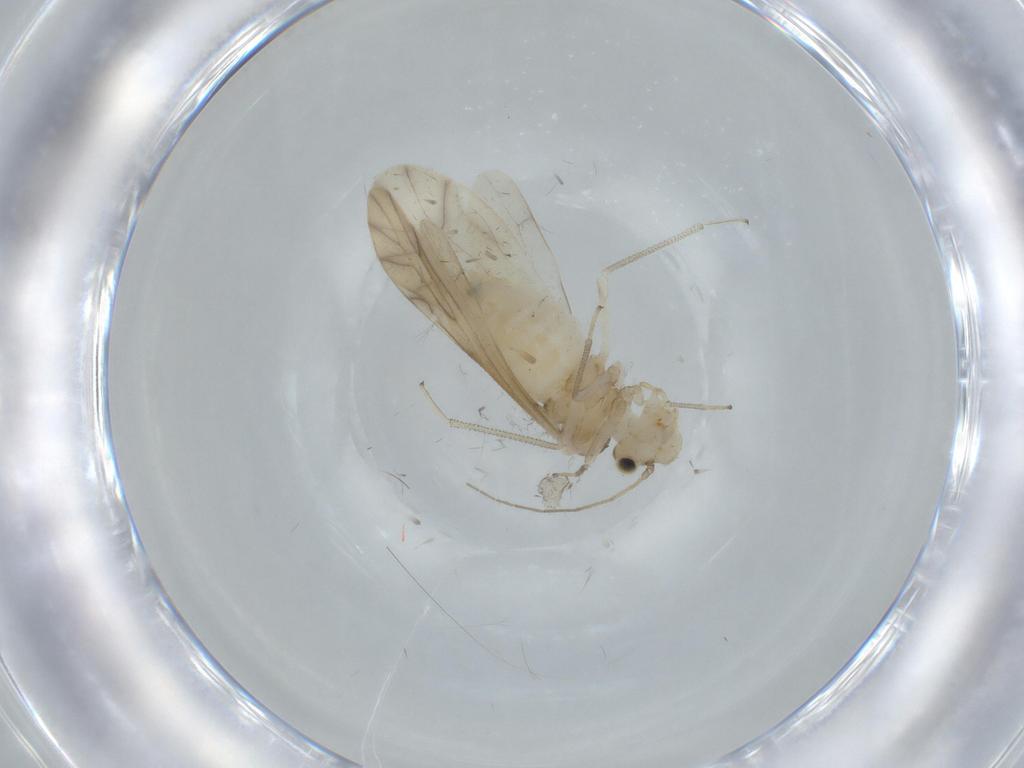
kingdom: Animalia
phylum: Arthropoda
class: Insecta
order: Psocodea
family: Caeciliusidae
